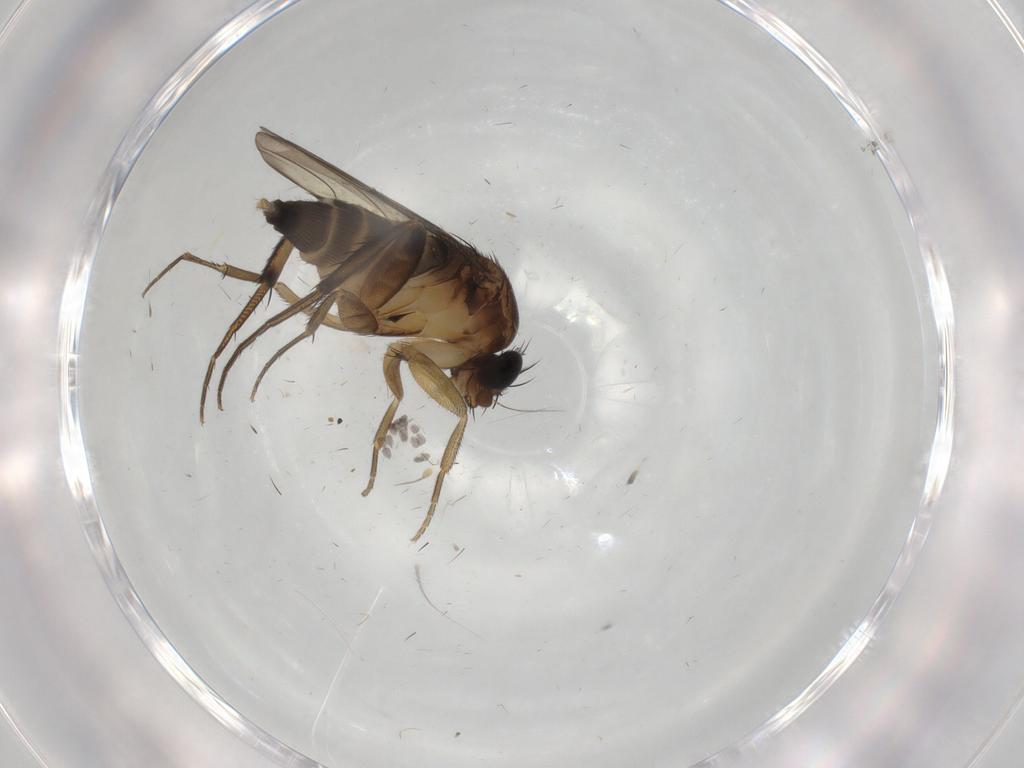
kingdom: Animalia
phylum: Arthropoda
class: Insecta
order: Diptera
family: Phoridae
